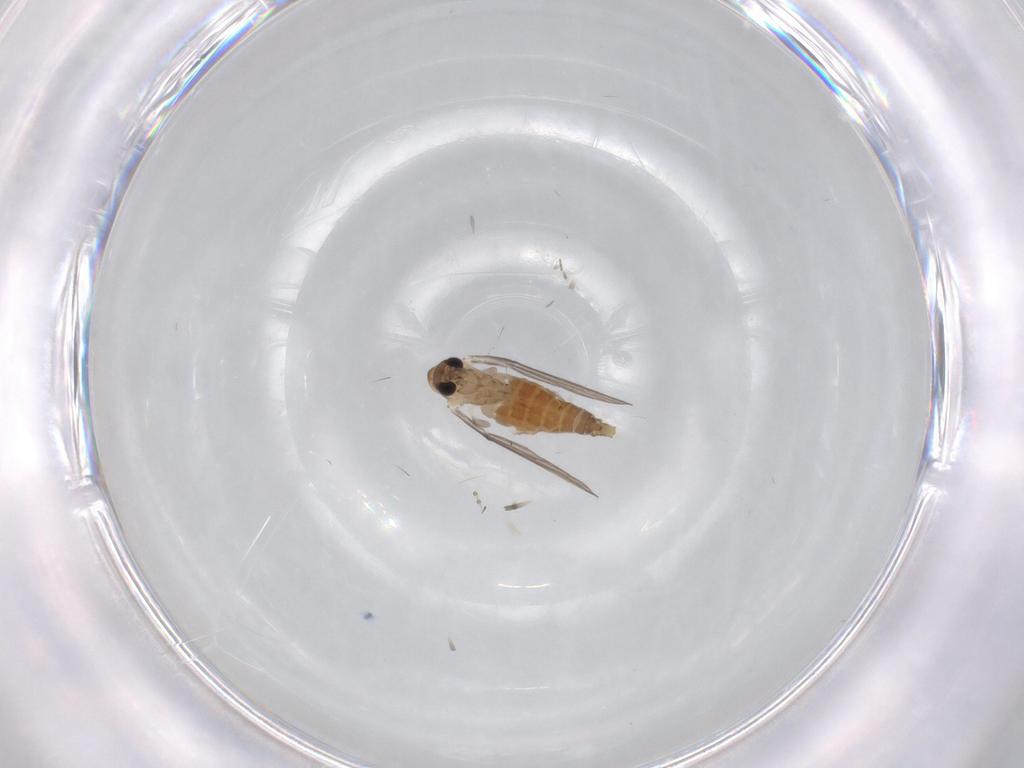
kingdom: Animalia
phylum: Arthropoda
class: Insecta
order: Diptera
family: Cecidomyiidae
